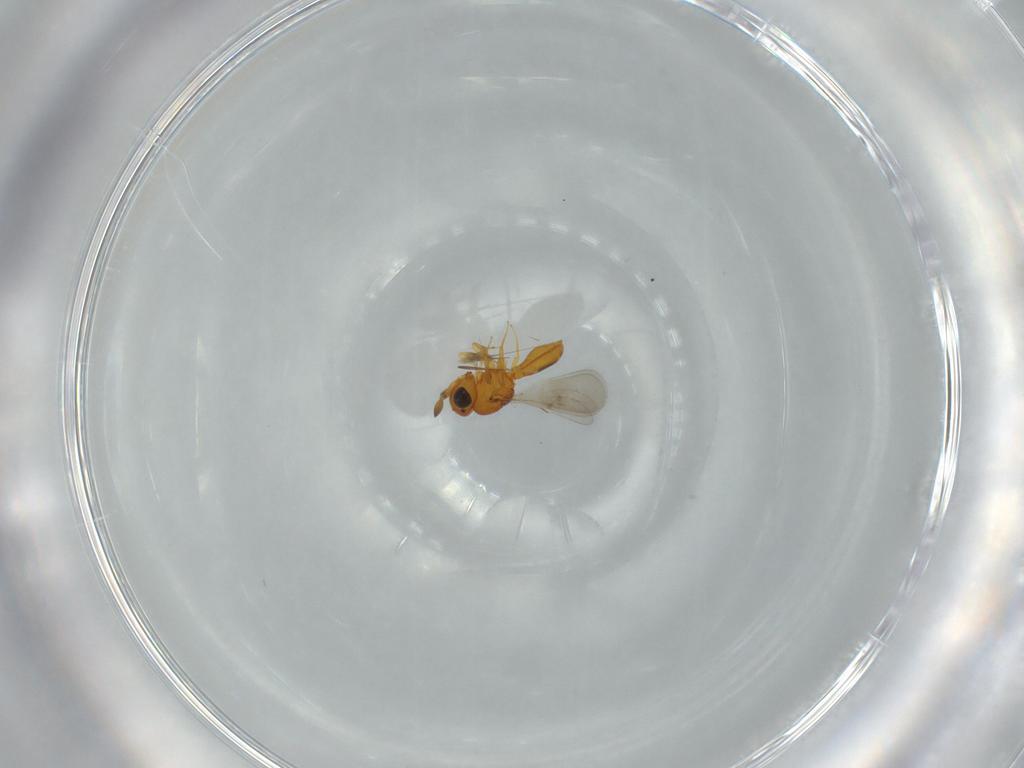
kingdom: Animalia
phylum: Arthropoda
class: Insecta
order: Hymenoptera
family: Scelionidae
